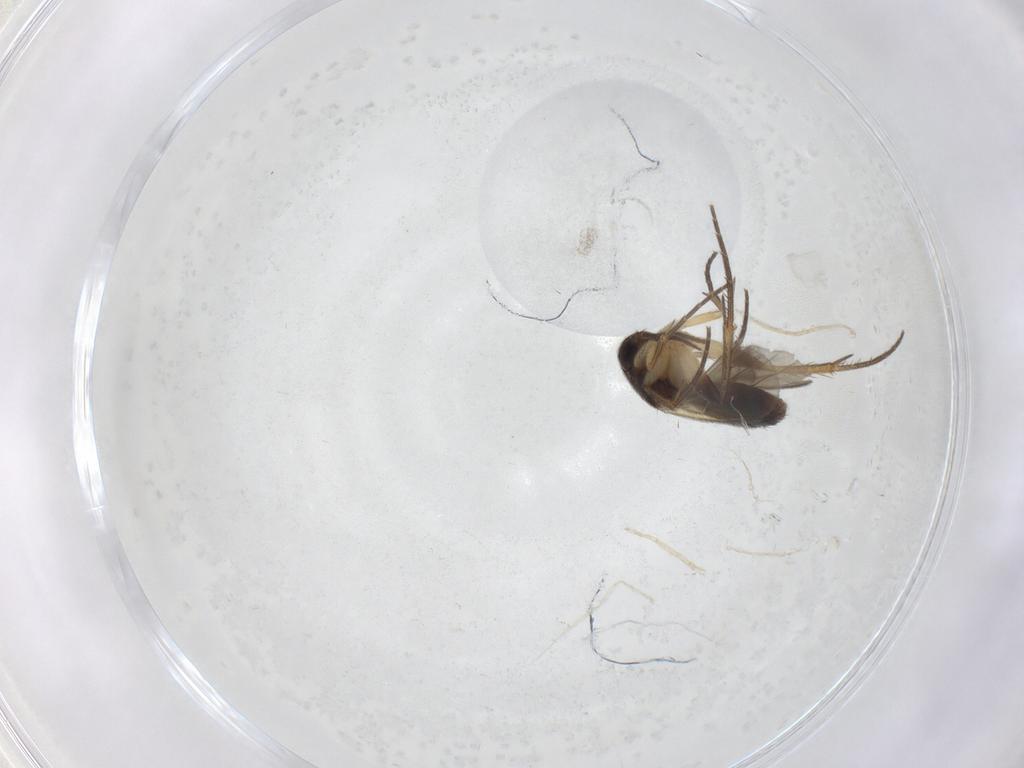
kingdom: Animalia
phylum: Arthropoda
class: Insecta
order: Diptera
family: Mycetophilidae
